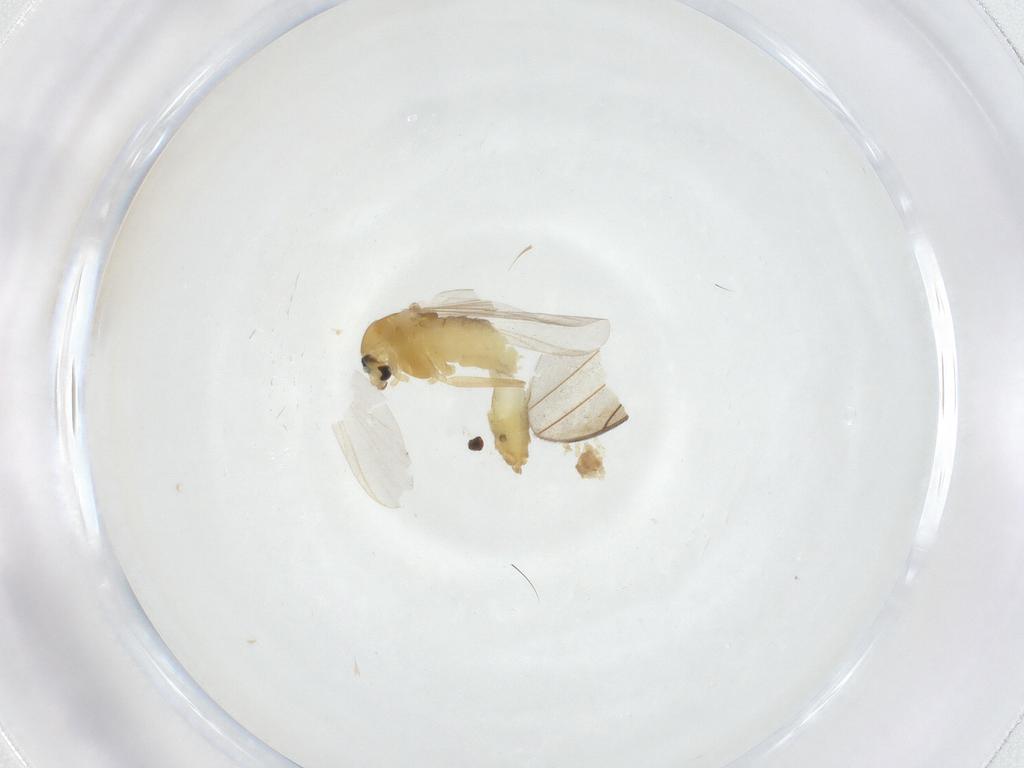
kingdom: Animalia
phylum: Arthropoda
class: Insecta
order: Diptera
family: Chironomidae
